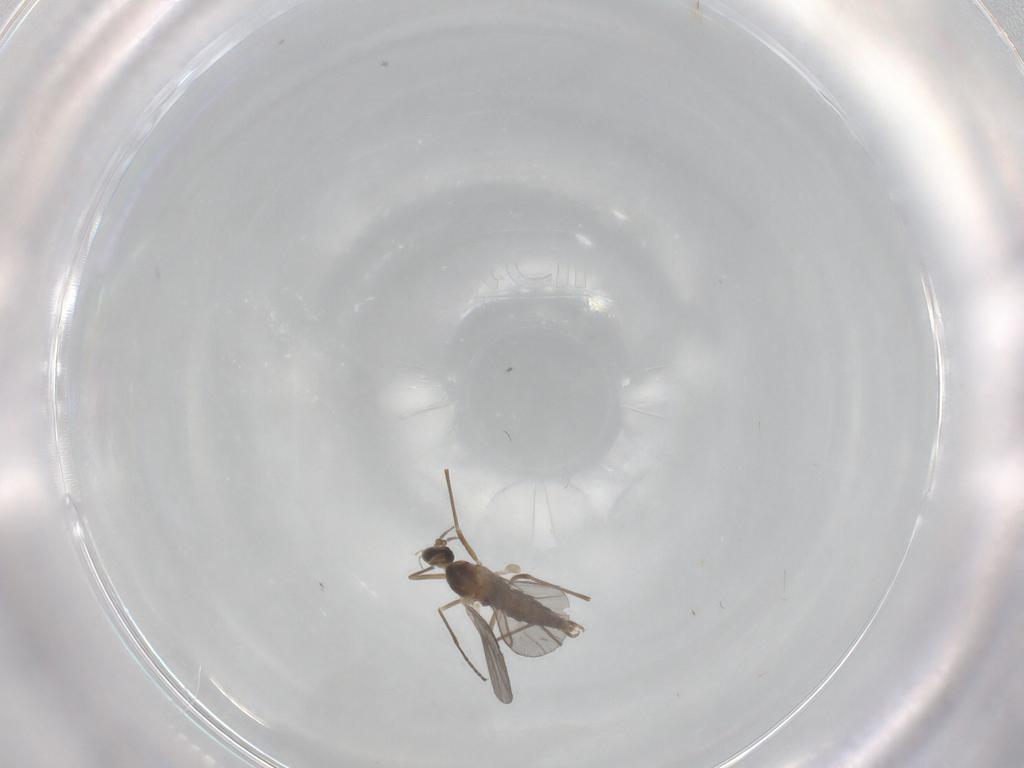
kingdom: Animalia
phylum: Arthropoda
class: Insecta
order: Diptera
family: Cecidomyiidae
